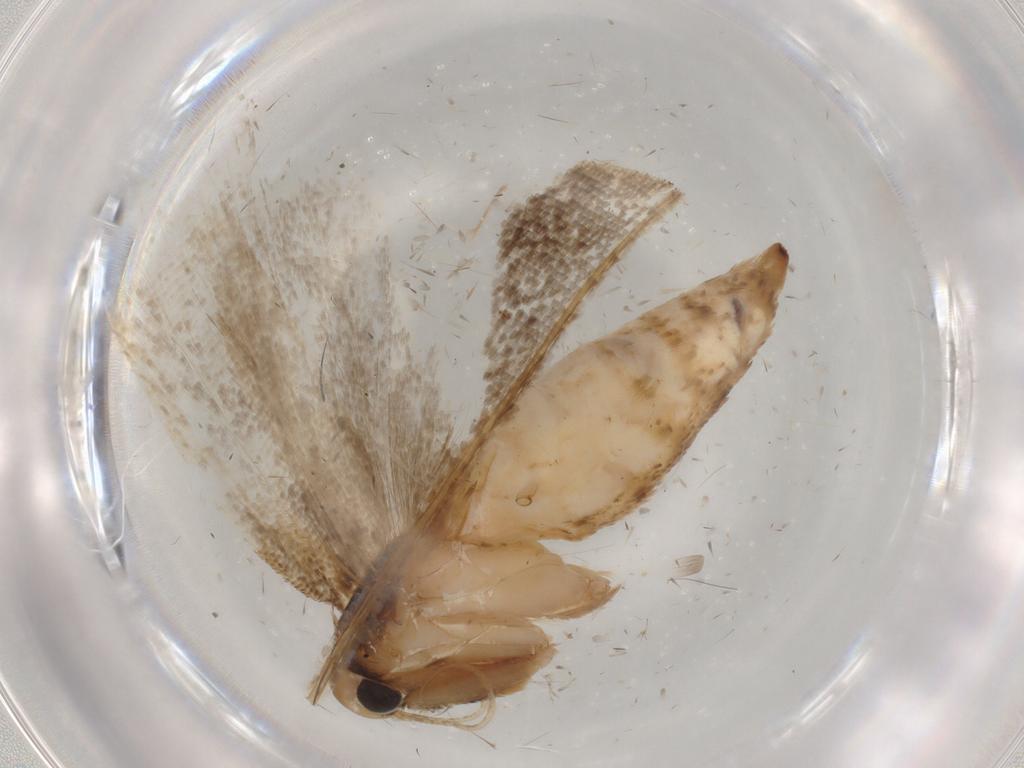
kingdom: Animalia
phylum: Arthropoda
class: Insecta
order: Lepidoptera
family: Gelechiidae
